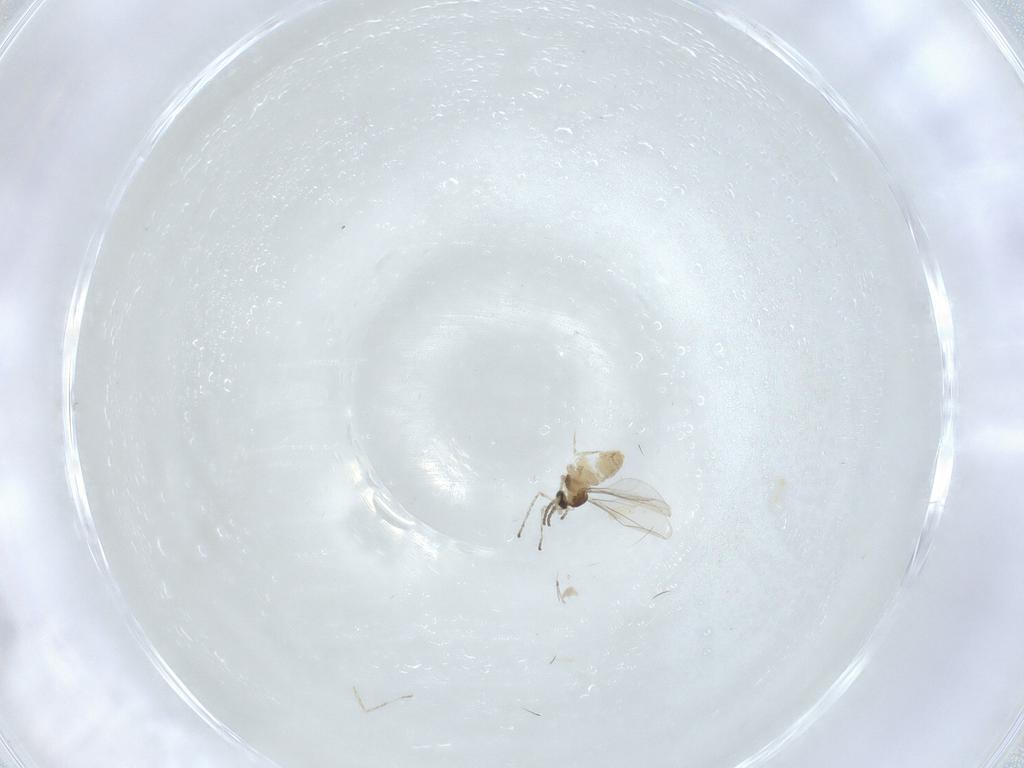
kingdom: Animalia
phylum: Arthropoda
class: Insecta
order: Diptera
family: Cecidomyiidae
